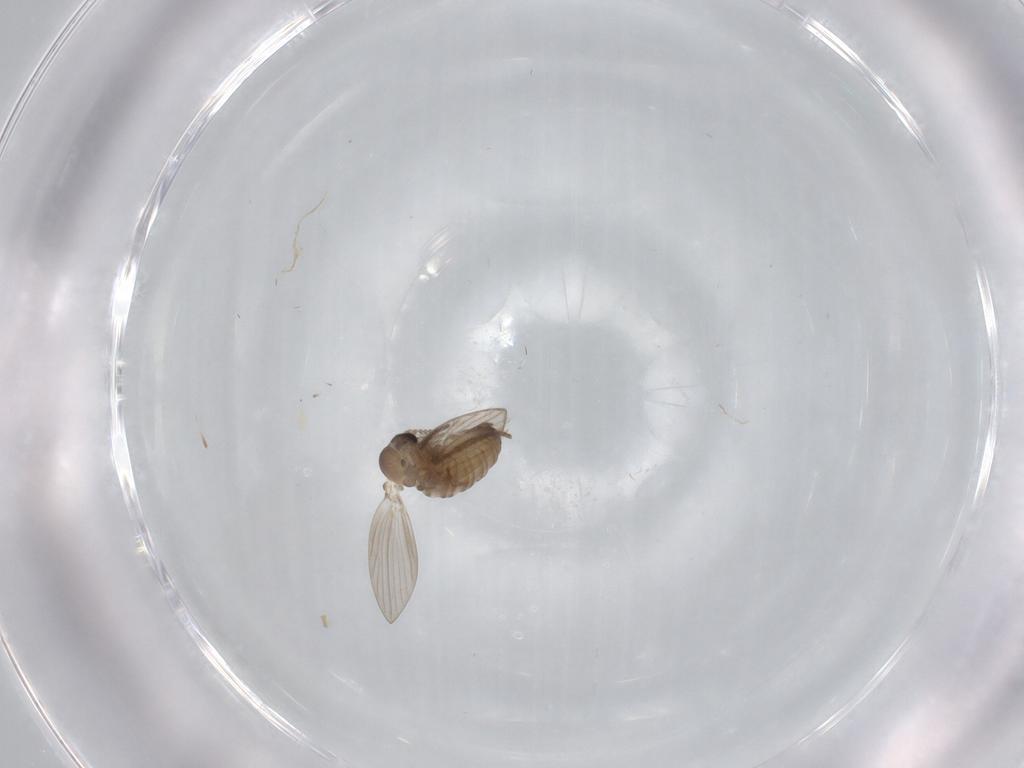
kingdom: Animalia
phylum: Arthropoda
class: Insecta
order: Diptera
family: Psychodidae
